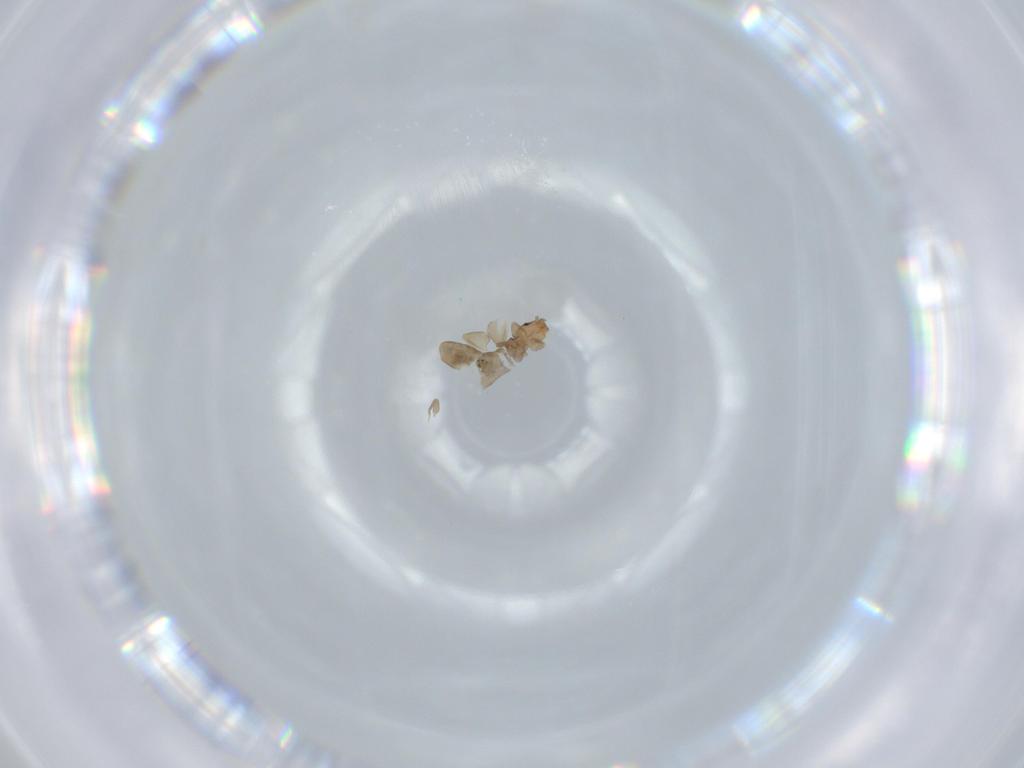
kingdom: Animalia
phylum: Arthropoda
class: Insecta
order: Psocodea
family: Liposcelididae
